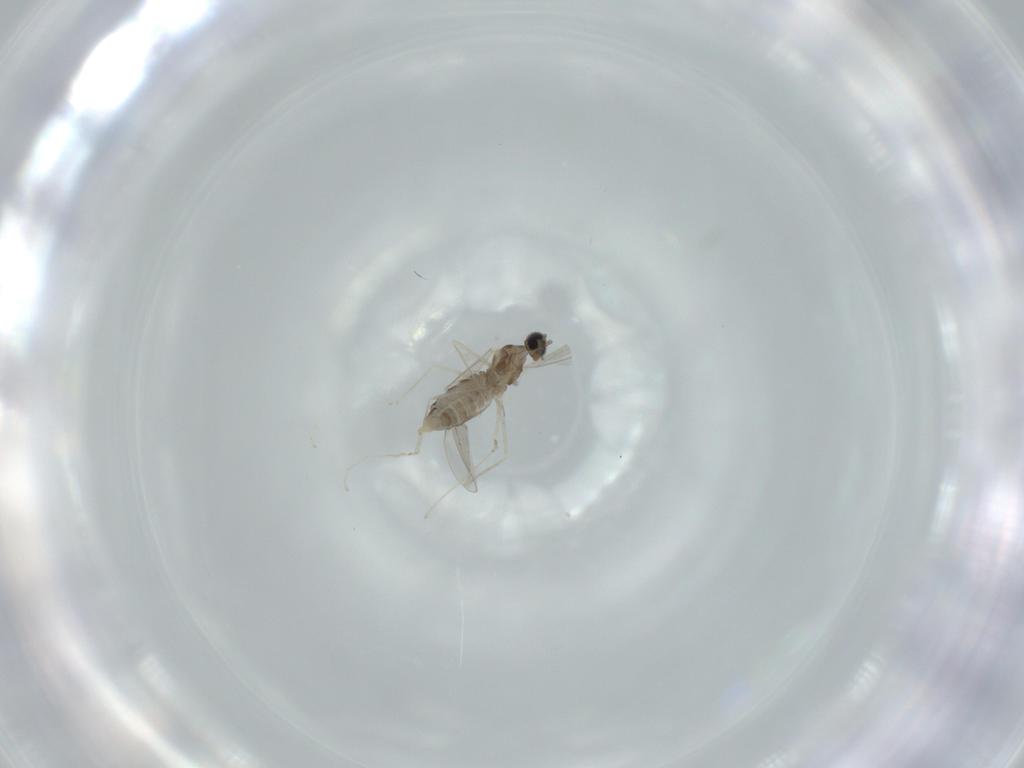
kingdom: Animalia
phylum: Arthropoda
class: Insecta
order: Diptera
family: Cecidomyiidae
